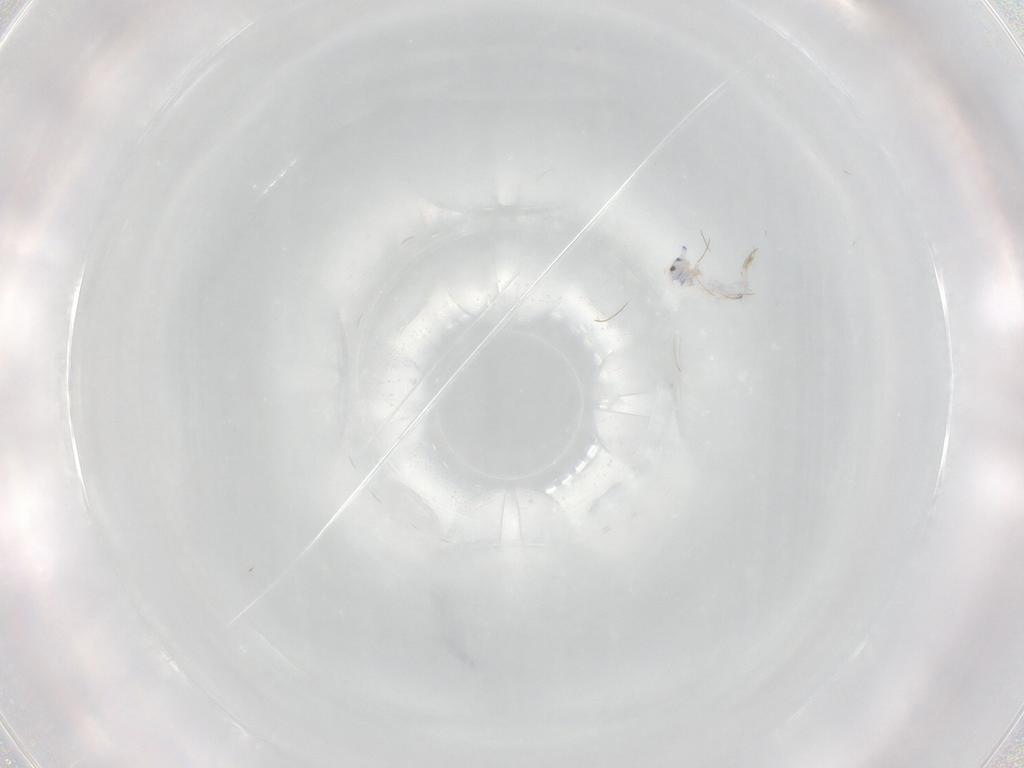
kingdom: Animalia
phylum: Arthropoda
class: Collembola
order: Entomobryomorpha
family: Entomobryidae
